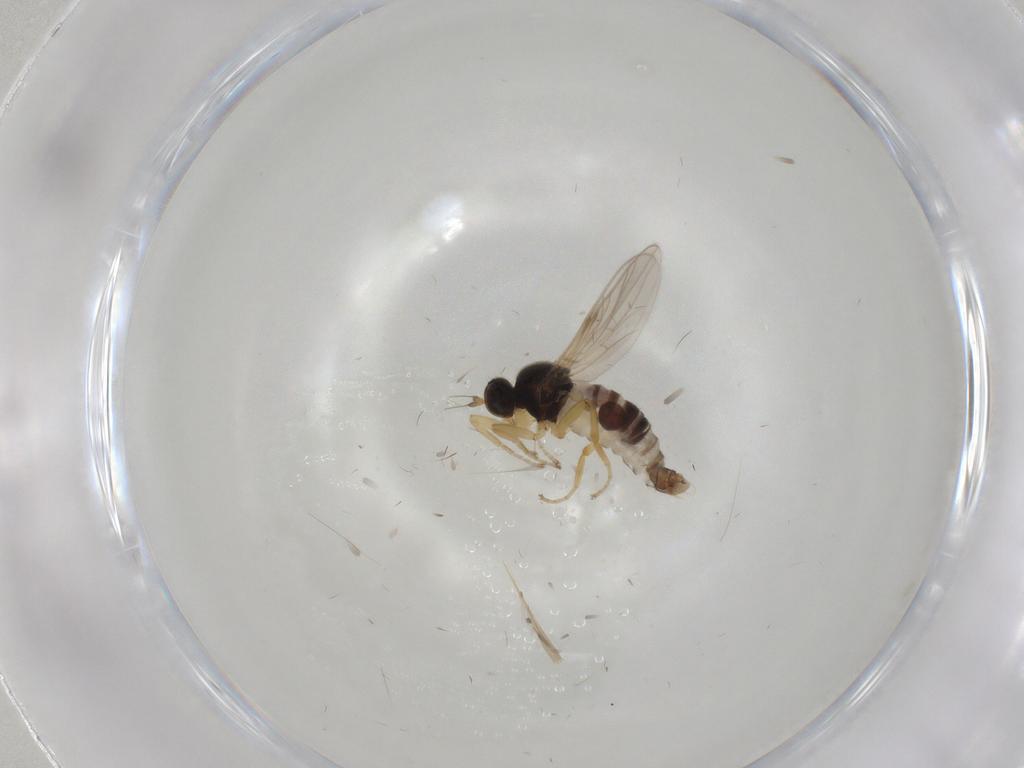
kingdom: Animalia
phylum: Arthropoda
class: Insecta
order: Diptera
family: Hybotidae
